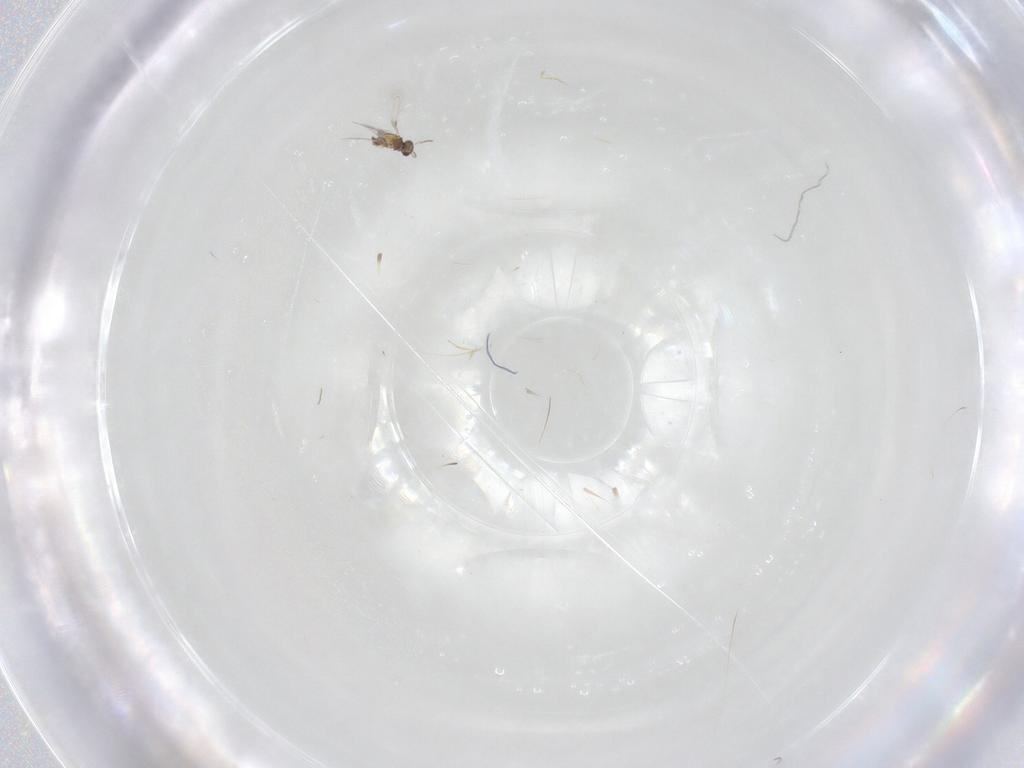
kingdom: Animalia
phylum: Arthropoda
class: Insecta
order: Hymenoptera
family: Mymaridae
